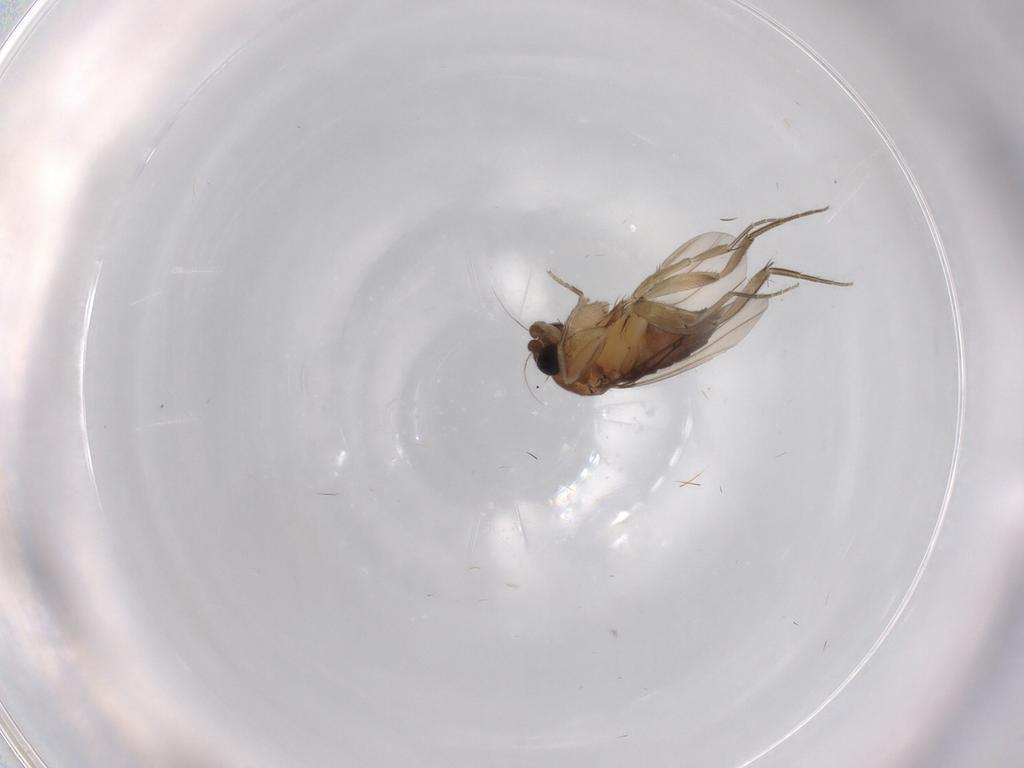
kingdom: Animalia
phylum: Arthropoda
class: Insecta
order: Diptera
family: Phoridae
